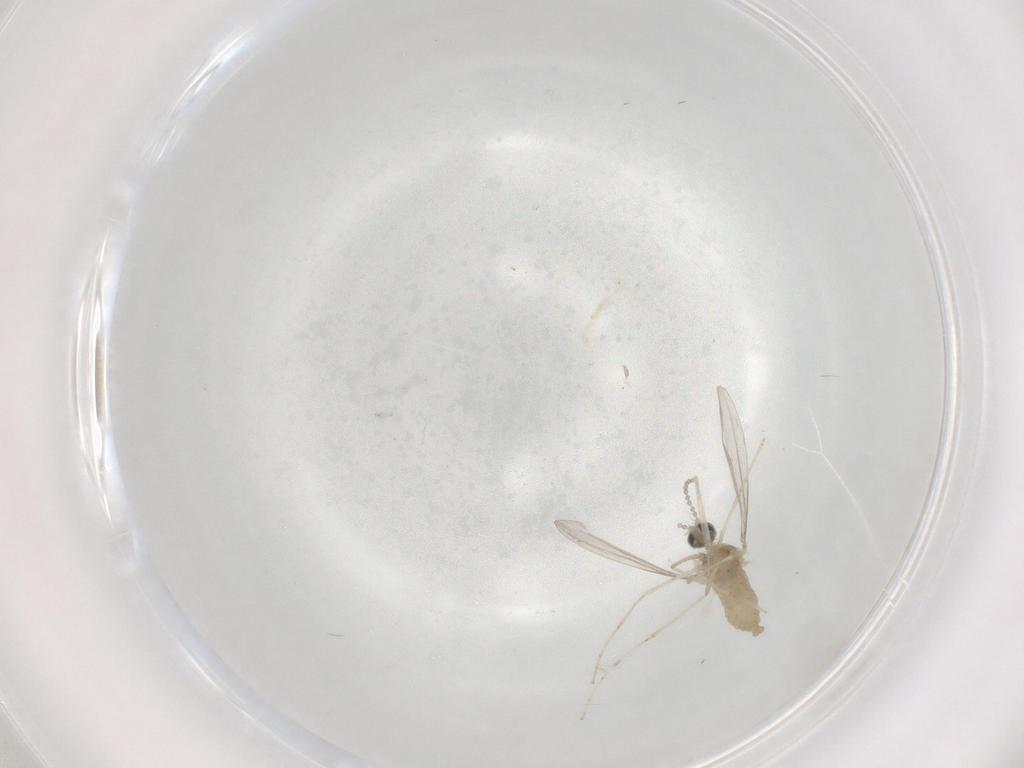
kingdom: Animalia
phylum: Arthropoda
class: Insecta
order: Diptera
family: Cecidomyiidae
